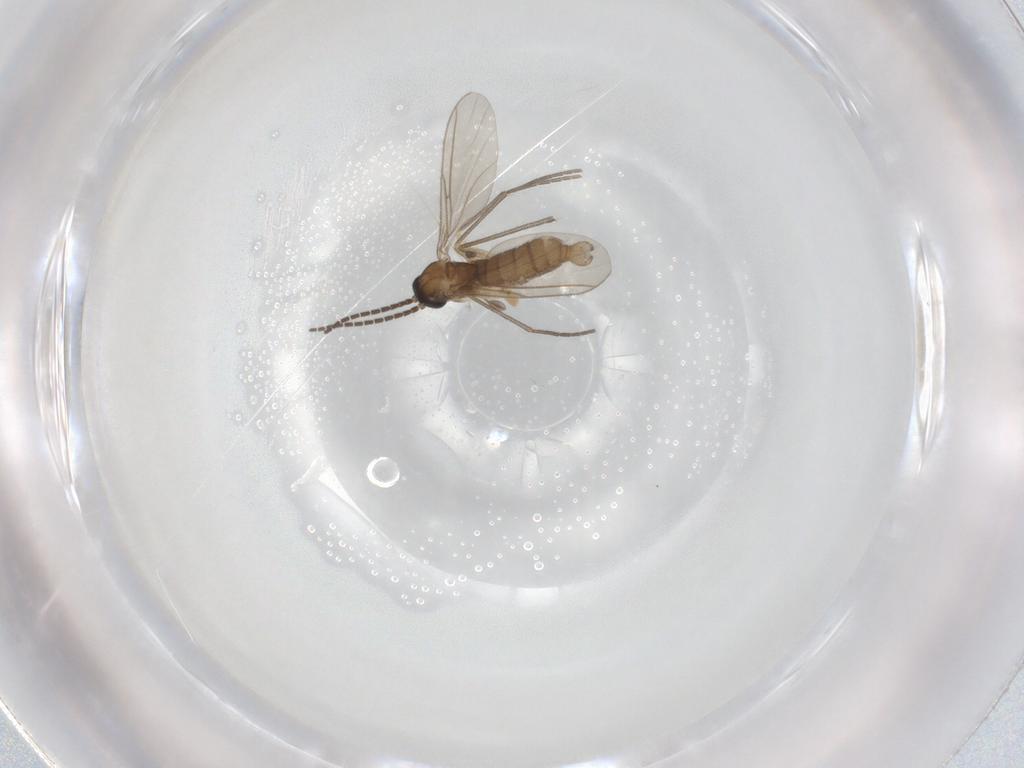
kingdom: Animalia
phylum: Arthropoda
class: Insecta
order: Diptera
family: Sciaridae
